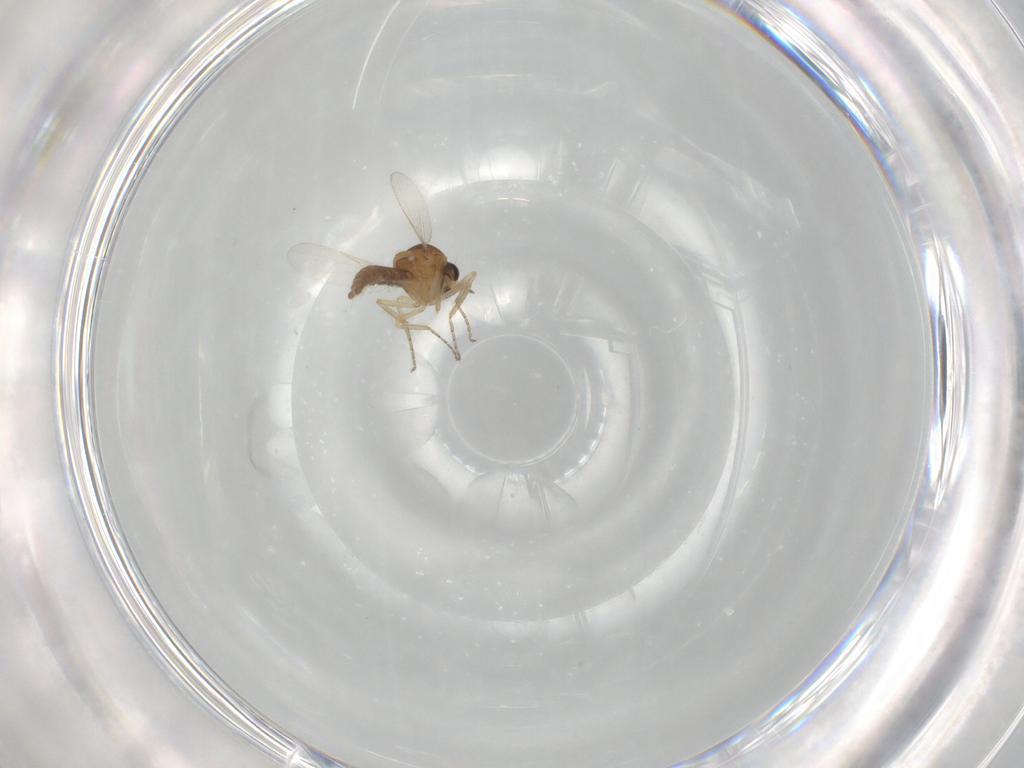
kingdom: Animalia
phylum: Arthropoda
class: Insecta
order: Diptera
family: Ceratopogonidae
